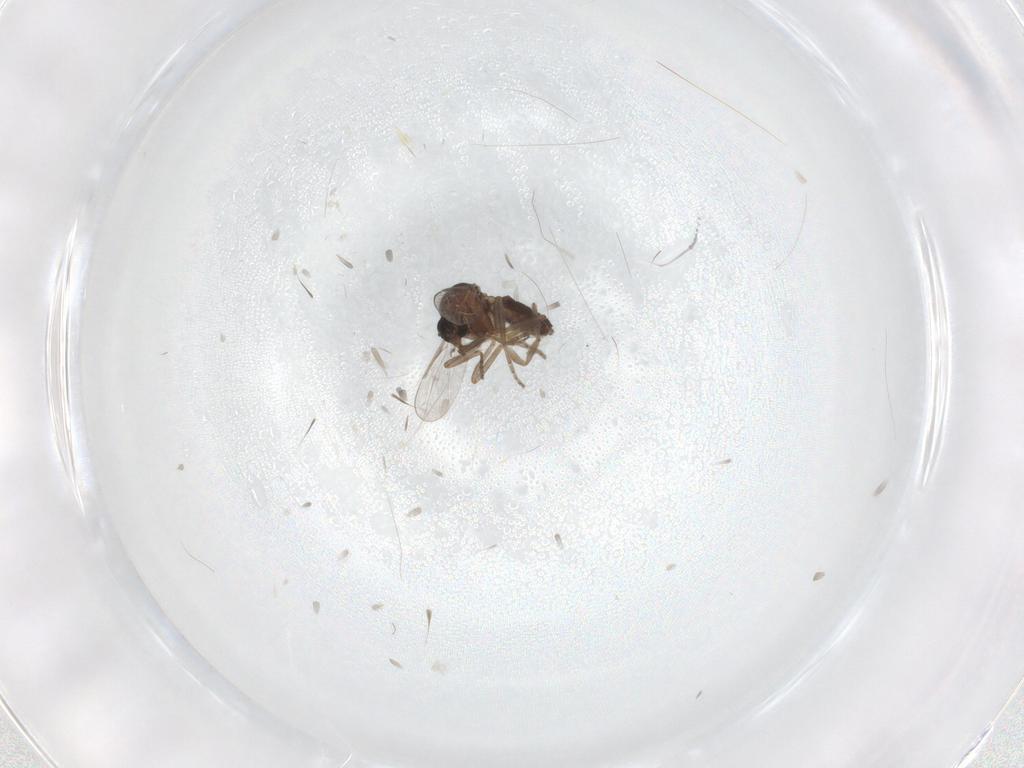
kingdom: Animalia
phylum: Arthropoda
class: Insecta
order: Diptera
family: Ceratopogonidae
